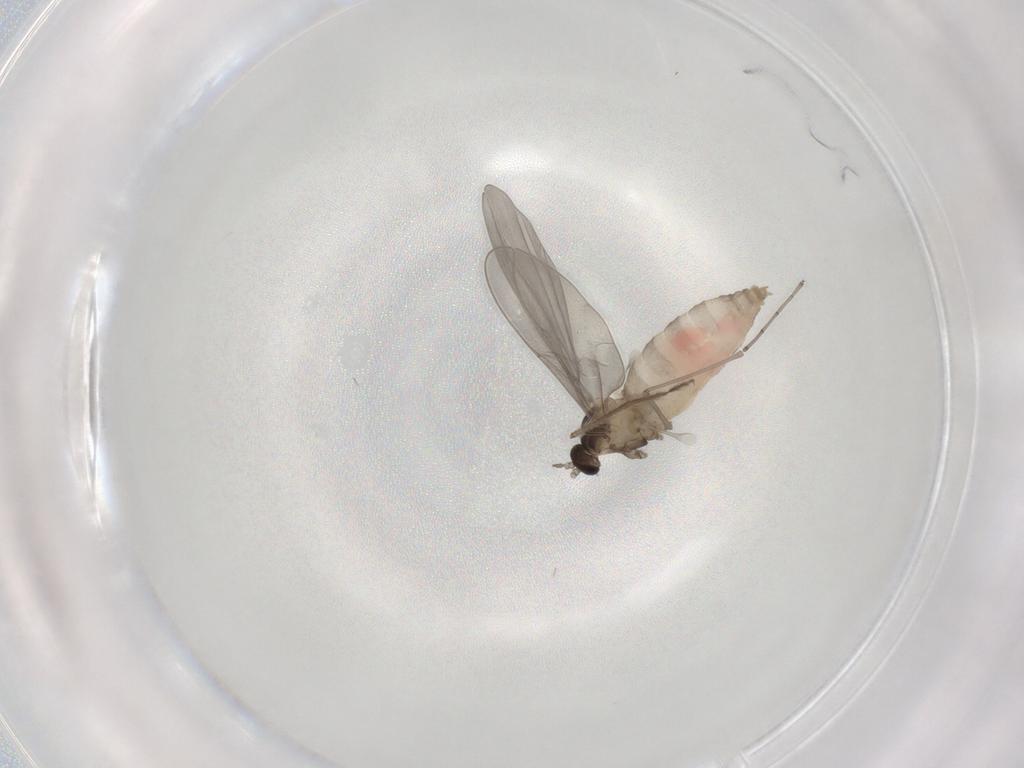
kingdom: Animalia
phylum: Arthropoda
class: Insecta
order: Diptera
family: Cecidomyiidae
